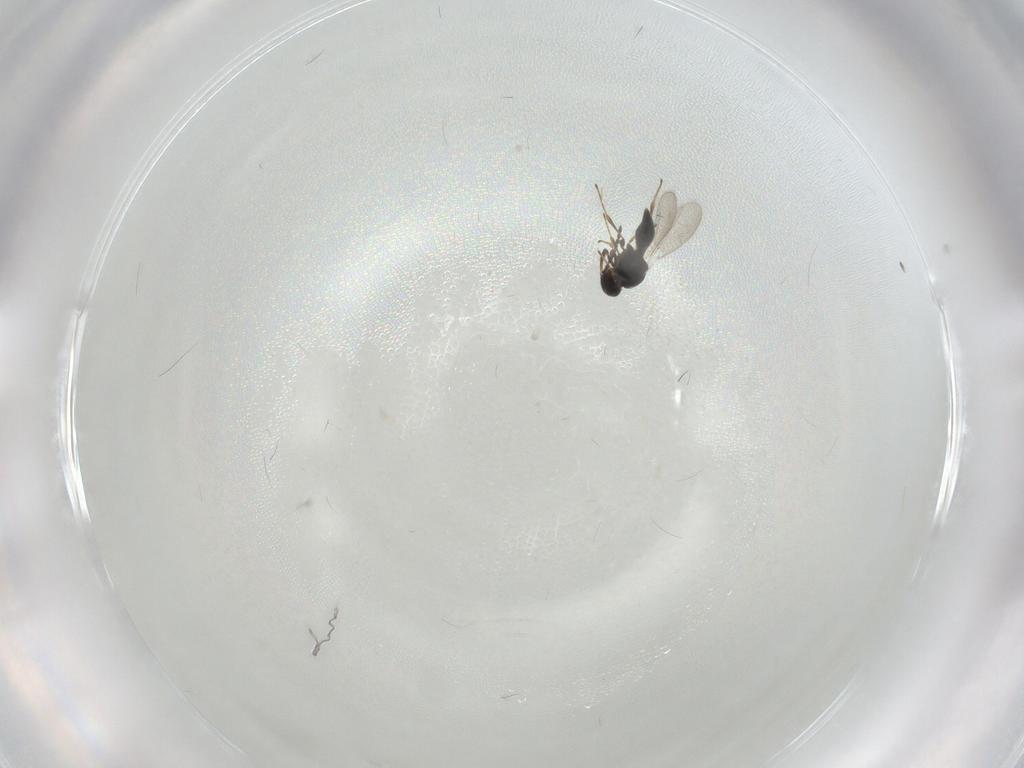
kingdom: Animalia
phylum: Arthropoda
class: Insecta
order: Hymenoptera
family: Platygastridae
